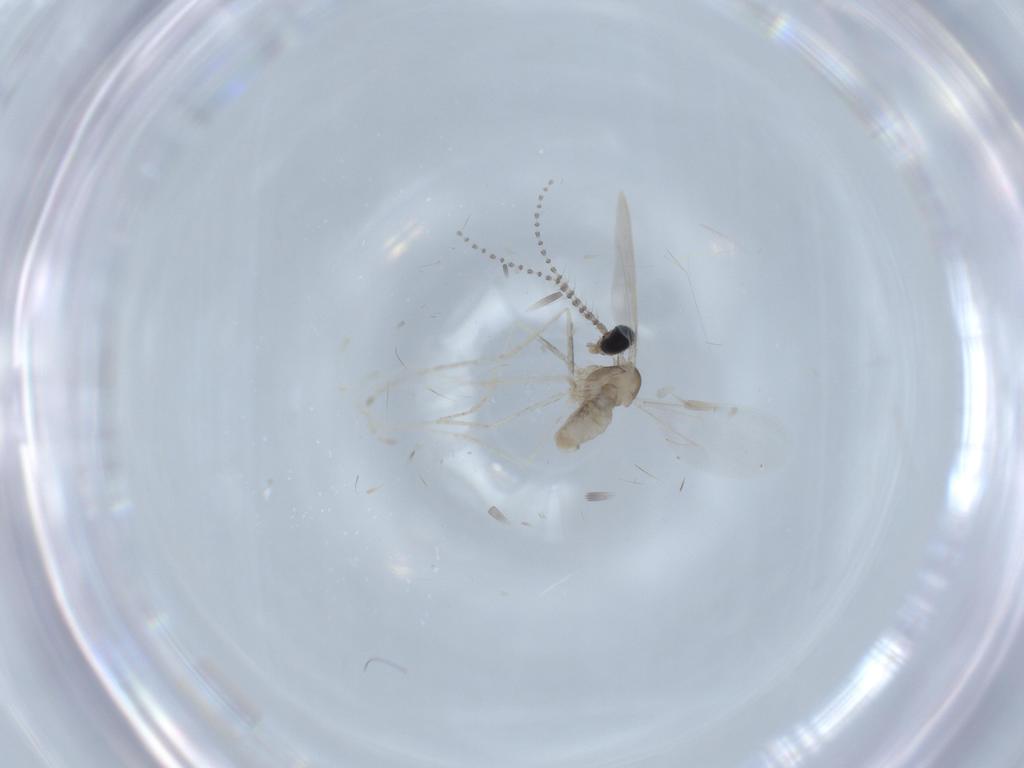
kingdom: Animalia
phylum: Arthropoda
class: Insecta
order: Diptera
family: Cecidomyiidae
